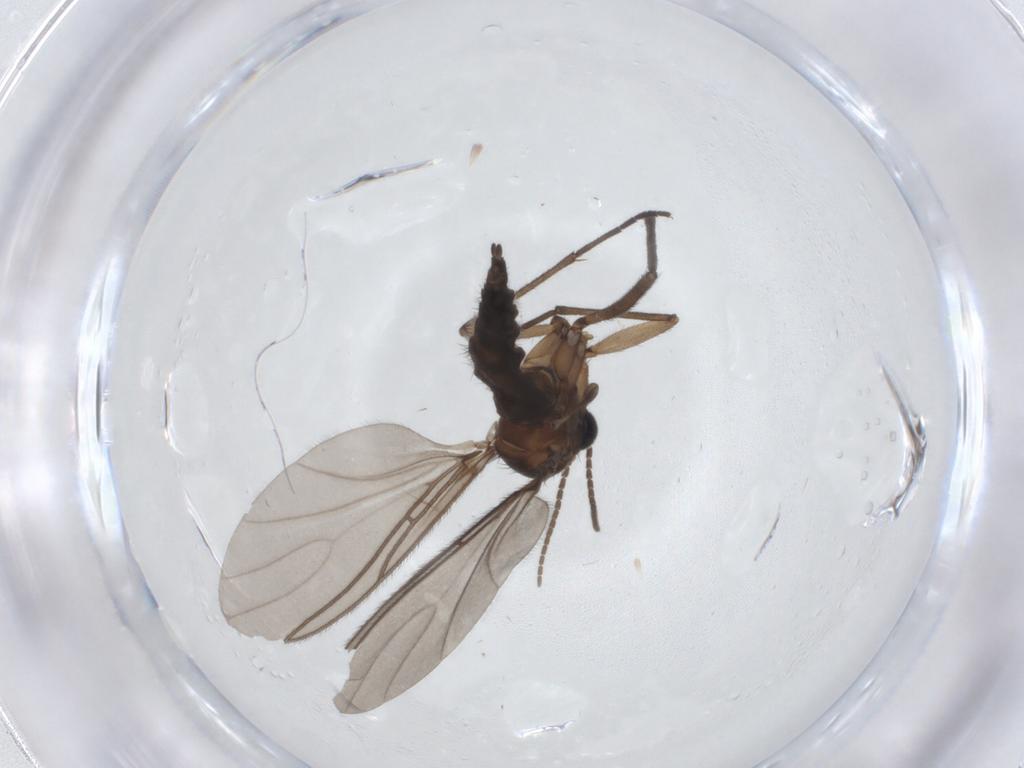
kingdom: Animalia
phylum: Arthropoda
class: Insecta
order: Diptera
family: Sciaridae
